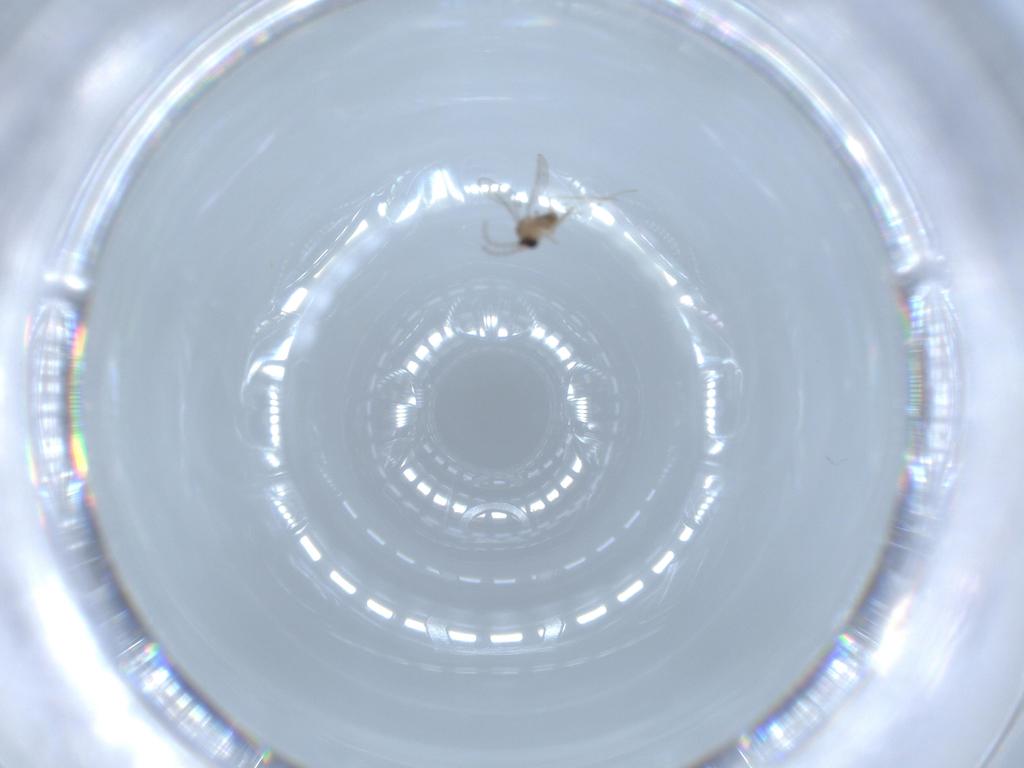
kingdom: Animalia
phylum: Arthropoda
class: Insecta
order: Diptera
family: Cecidomyiidae
